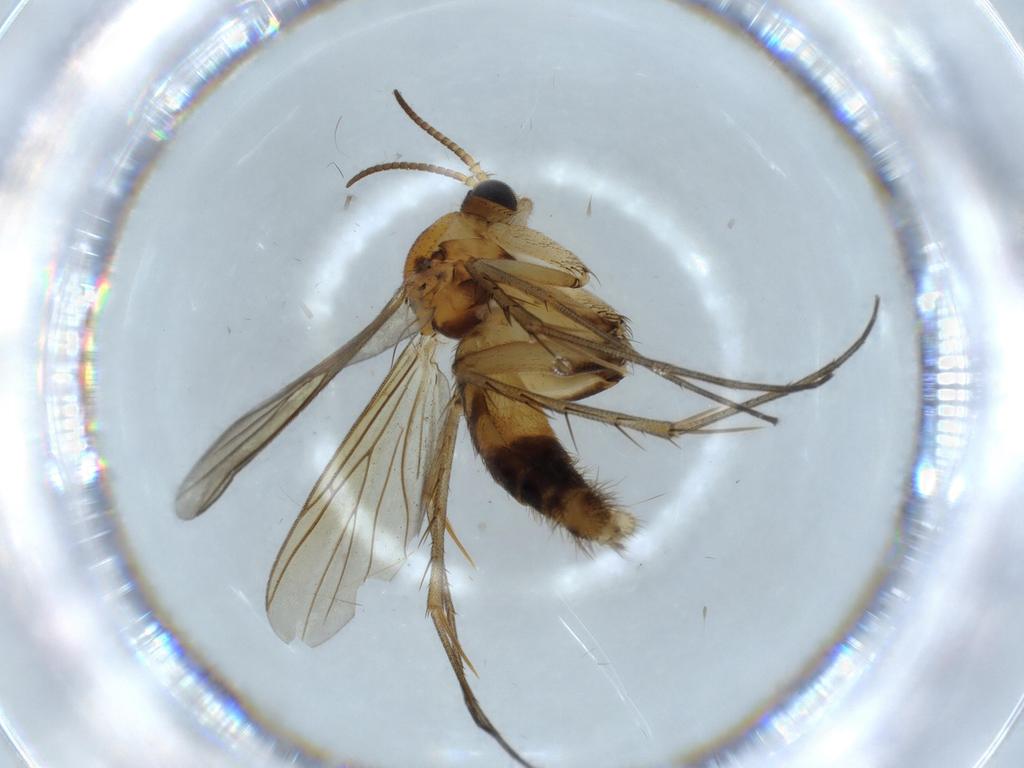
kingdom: Animalia
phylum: Arthropoda
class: Insecta
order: Diptera
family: Mycetophilidae
